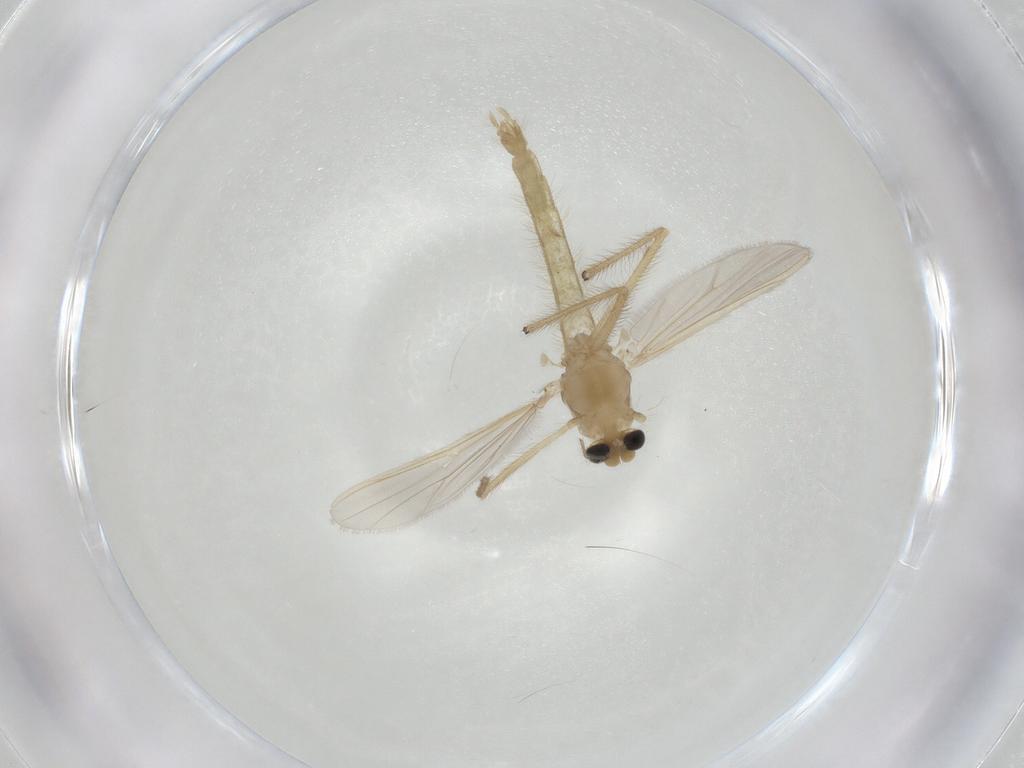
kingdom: Animalia
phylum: Arthropoda
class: Insecta
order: Diptera
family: Chironomidae
